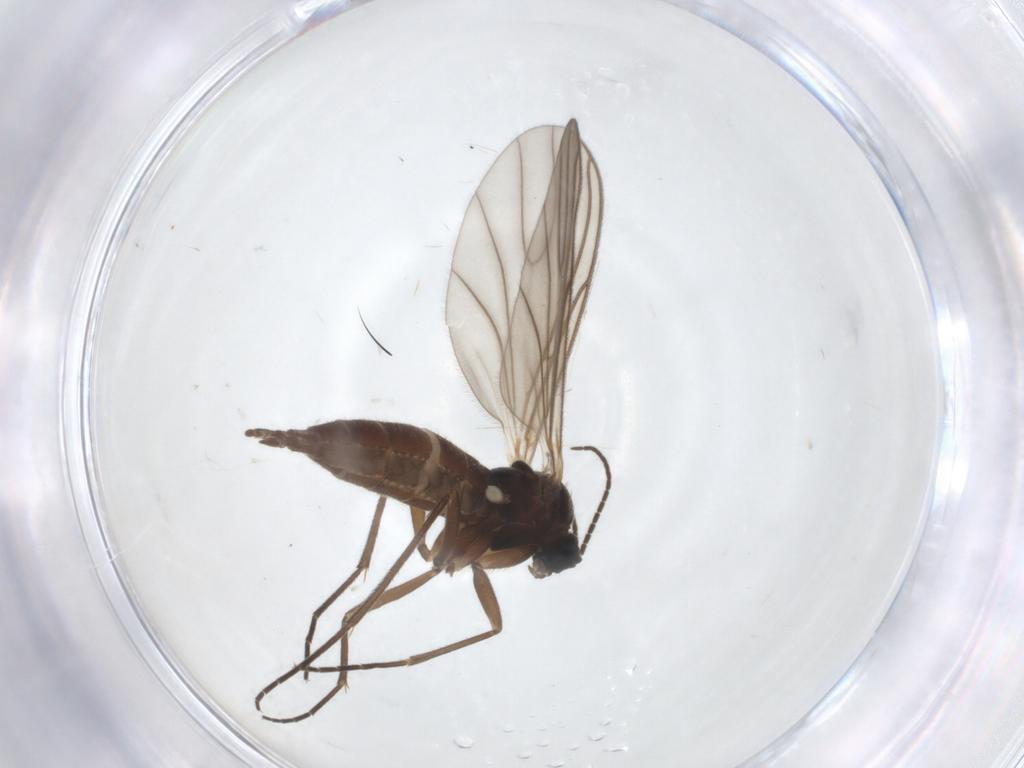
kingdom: Animalia
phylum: Arthropoda
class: Insecta
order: Diptera
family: Sciaridae
